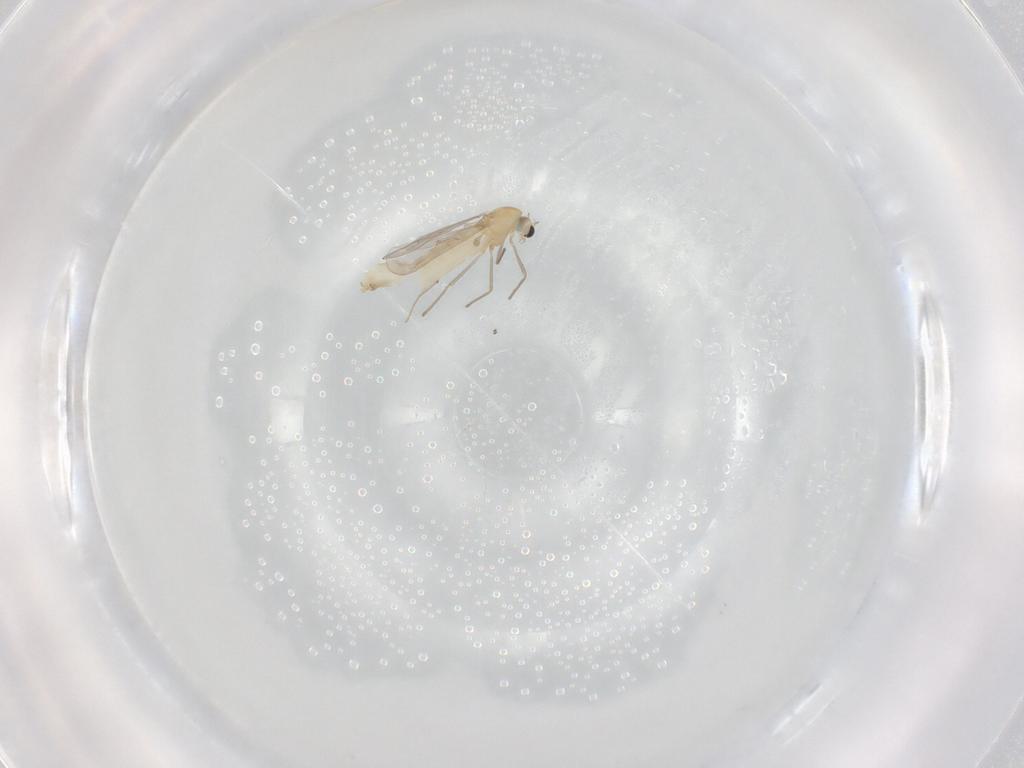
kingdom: Animalia
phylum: Arthropoda
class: Insecta
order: Diptera
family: Chironomidae
